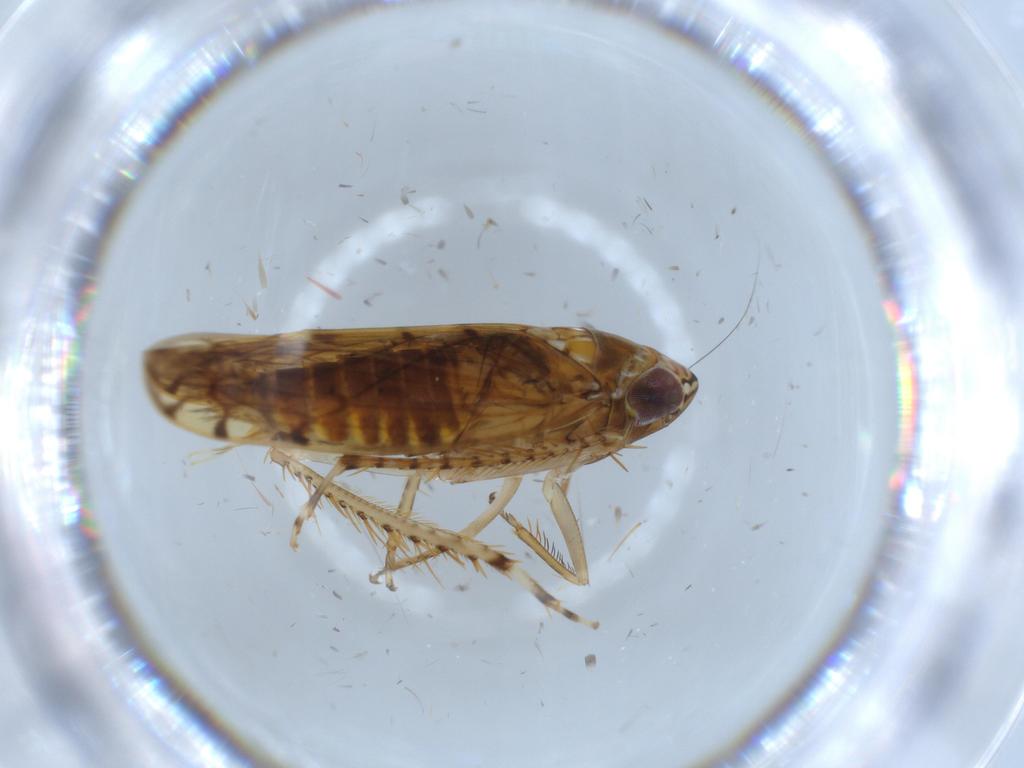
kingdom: Animalia
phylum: Arthropoda
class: Insecta
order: Hemiptera
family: Cicadellidae
